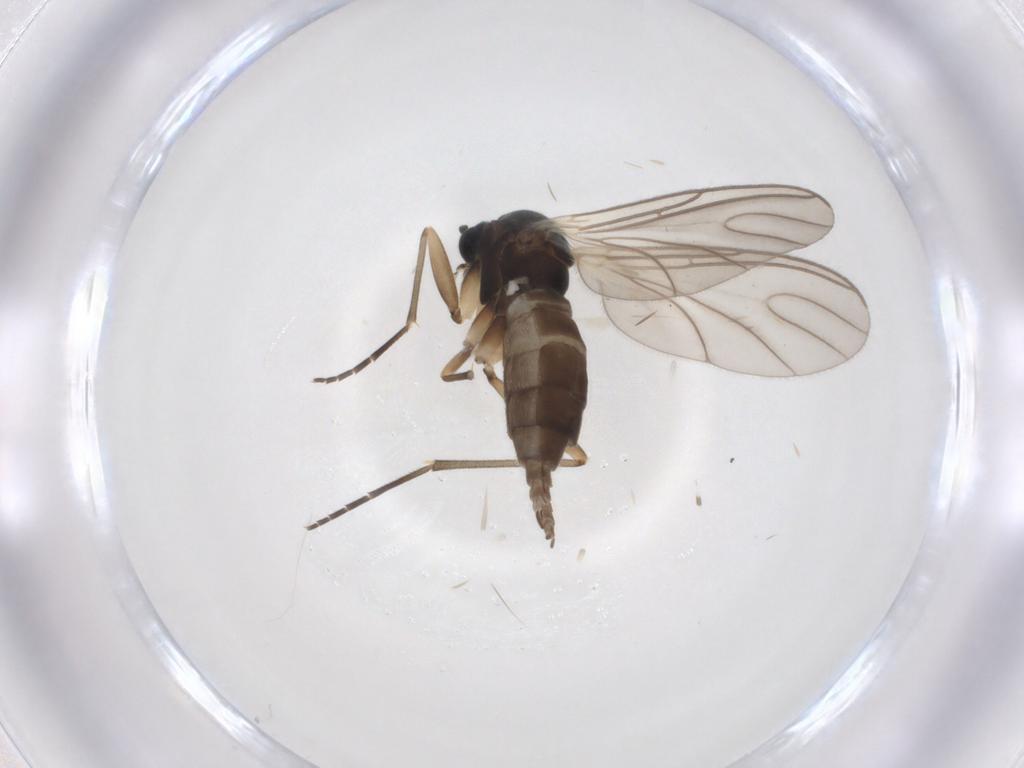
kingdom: Animalia
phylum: Arthropoda
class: Insecta
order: Diptera
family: Sciaridae
